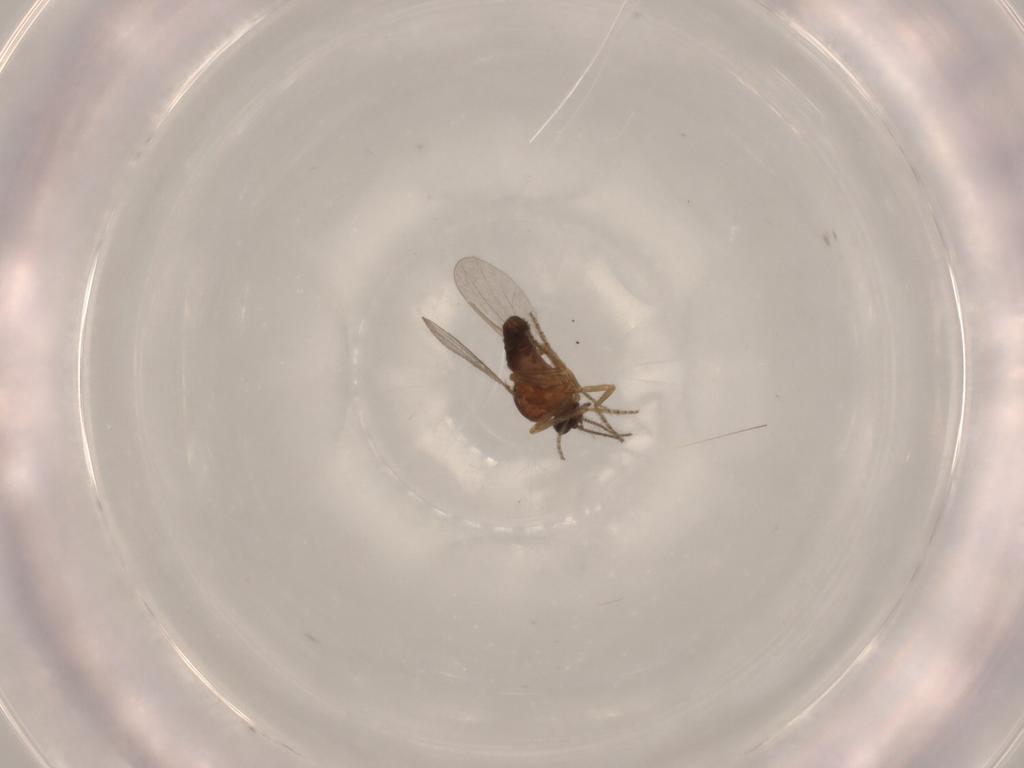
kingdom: Animalia
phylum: Arthropoda
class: Insecta
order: Diptera
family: Ceratopogonidae
